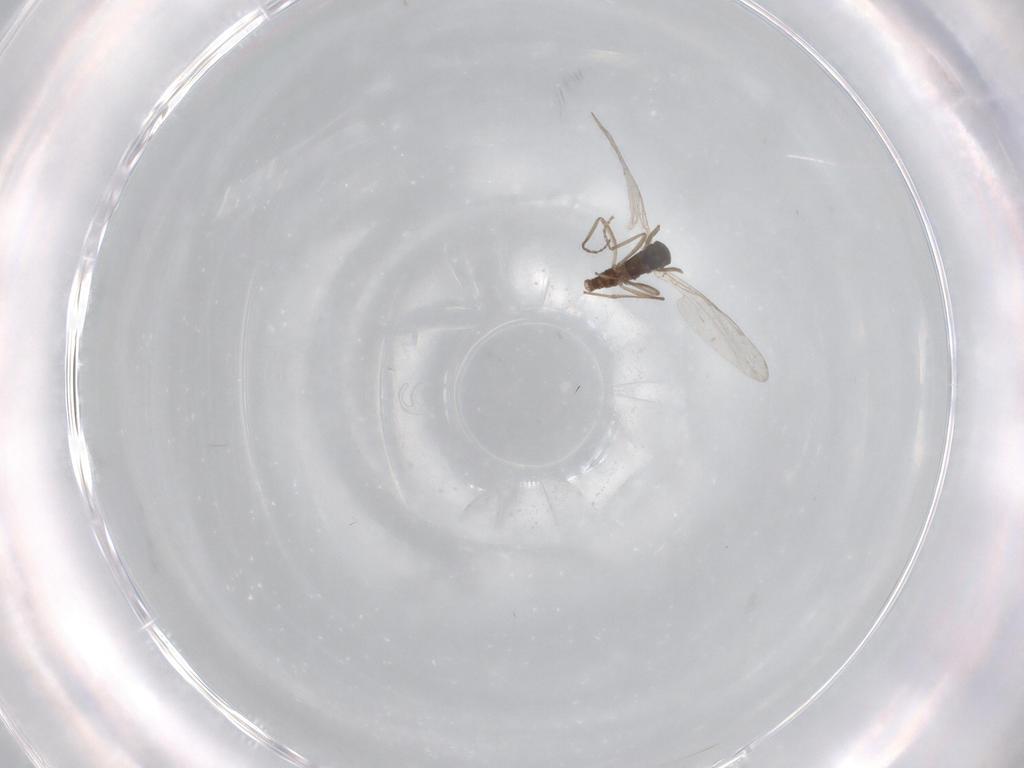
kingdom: Animalia
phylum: Arthropoda
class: Insecta
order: Diptera
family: Cecidomyiidae
